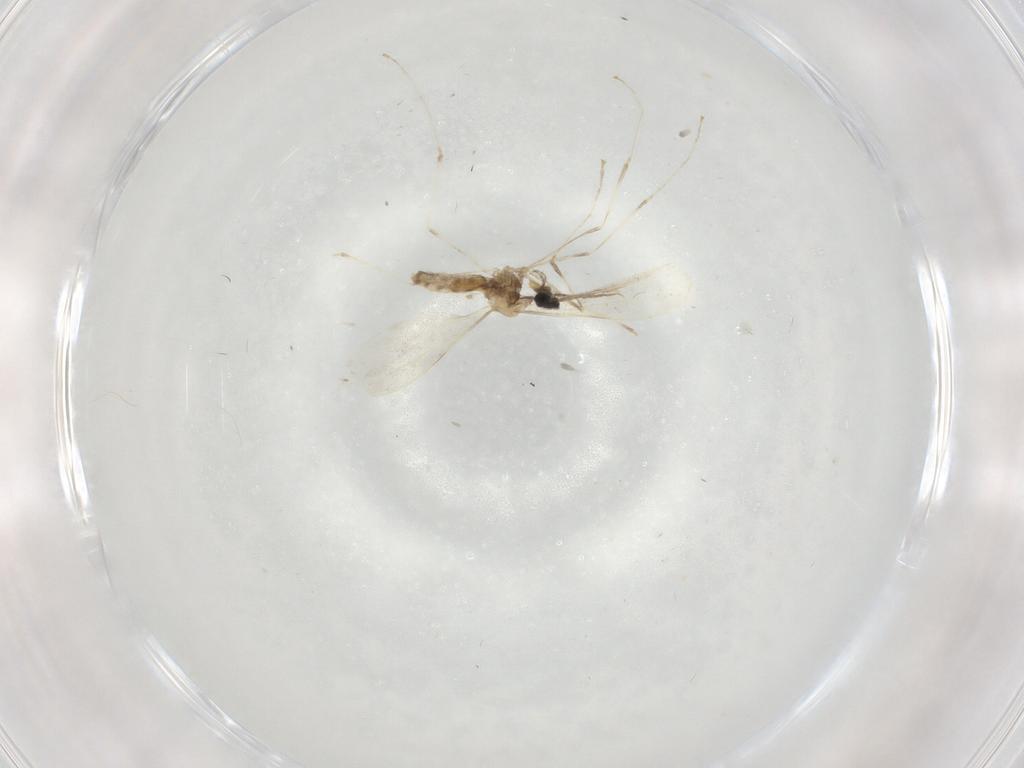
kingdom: Animalia
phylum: Arthropoda
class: Insecta
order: Diptera
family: Cecidomyiidae
